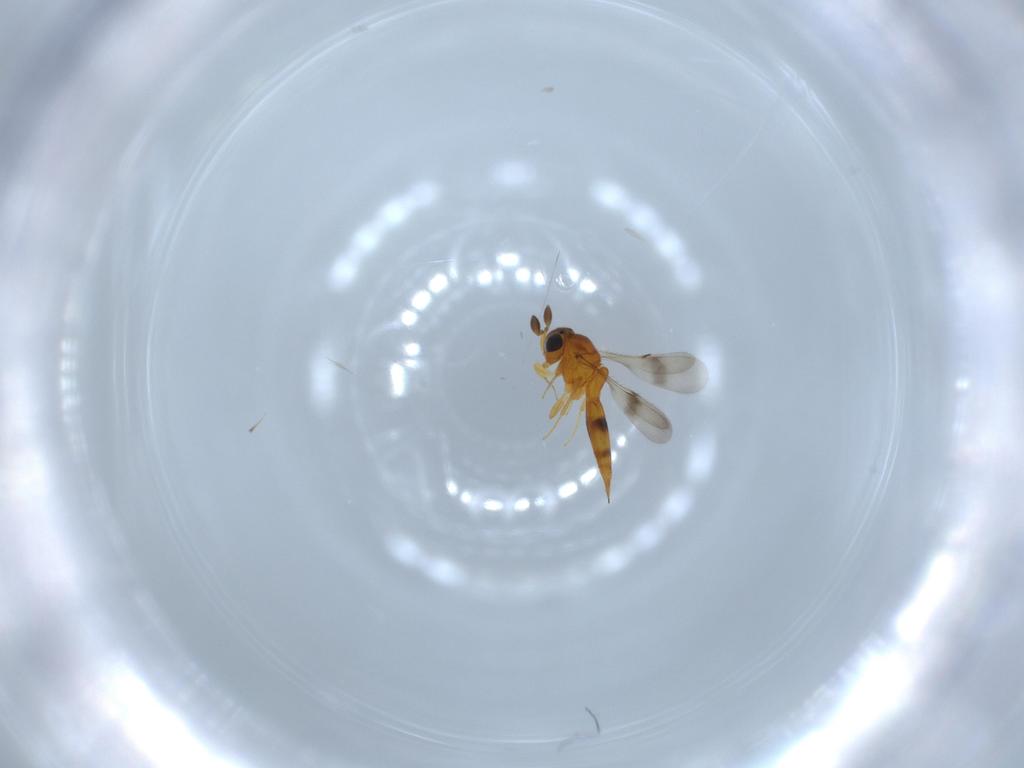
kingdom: Animalia
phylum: Arthropoda
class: Insecta
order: Hymenoptera
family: Scelionidae
